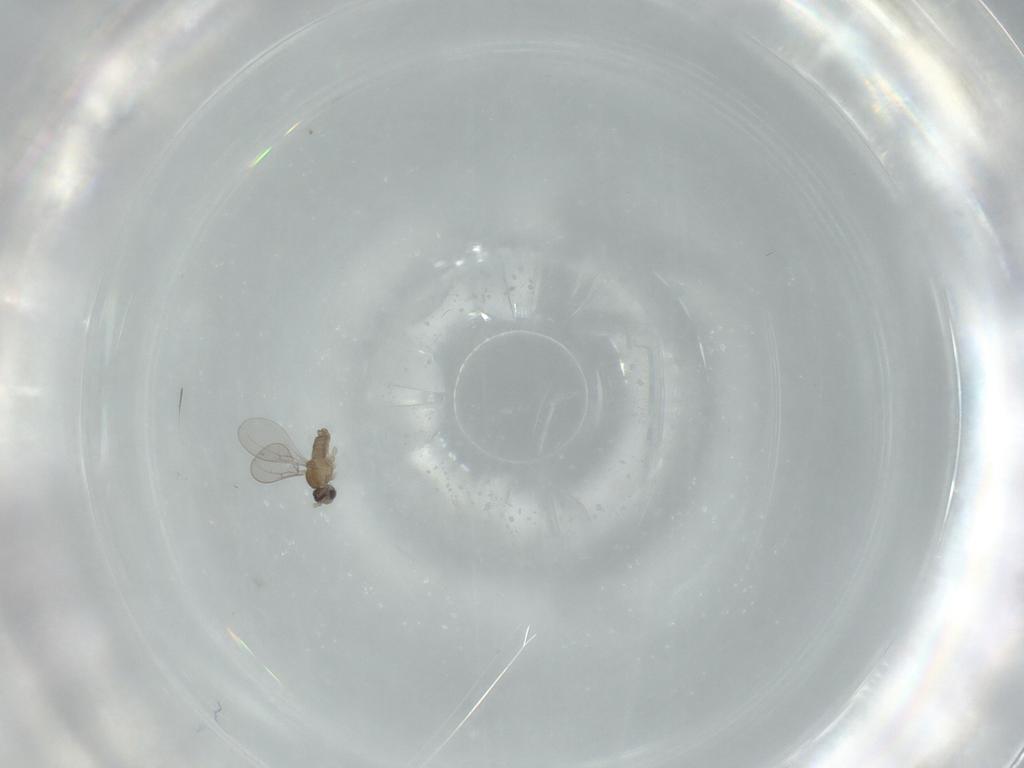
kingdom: Animalia
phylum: Arthropoda
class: Insecta
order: Diptera
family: Cecidomyiidae
